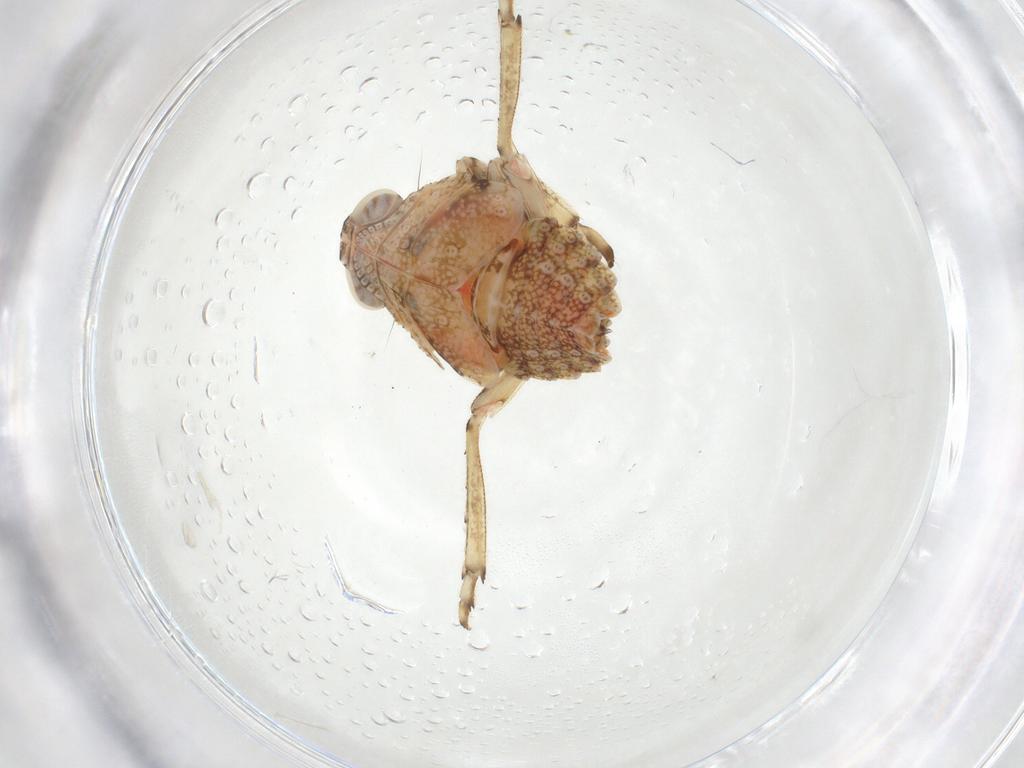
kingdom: Animalia
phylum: Arthropoda
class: Insecta
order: Hemiptera
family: Issidae
